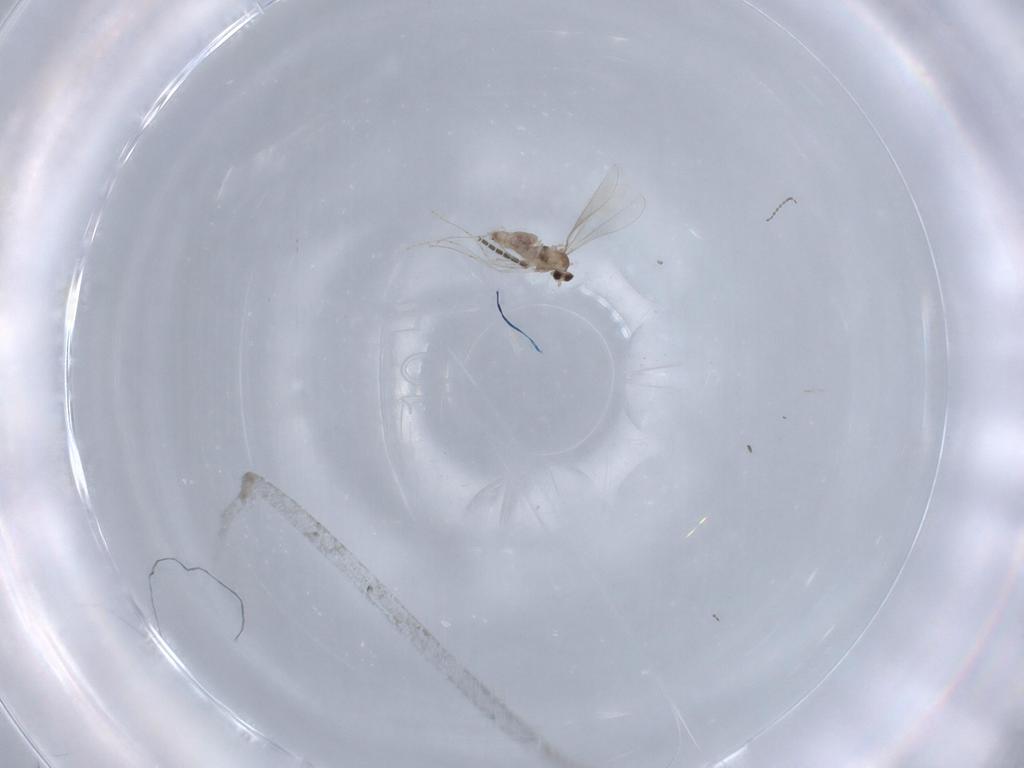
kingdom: Animalia
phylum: Arthropoda
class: Insecta
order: Diptera
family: Cecidomyiidae
